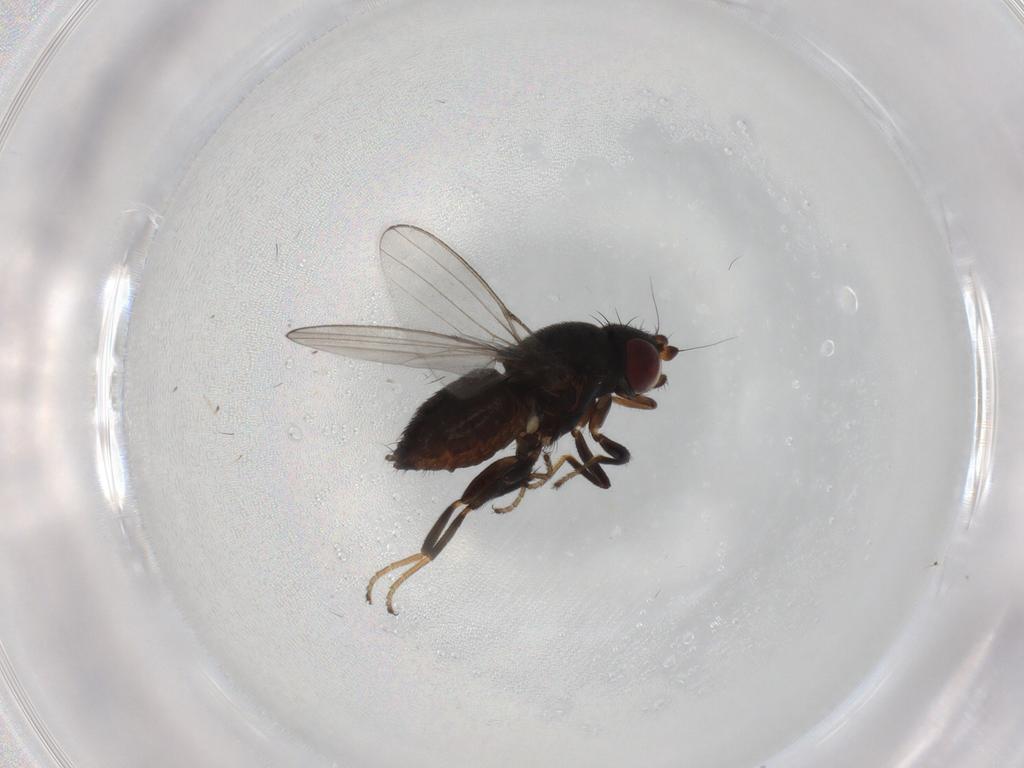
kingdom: Animalia
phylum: Arthropoda
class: Insecta
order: Diptera
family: Milichiidae
